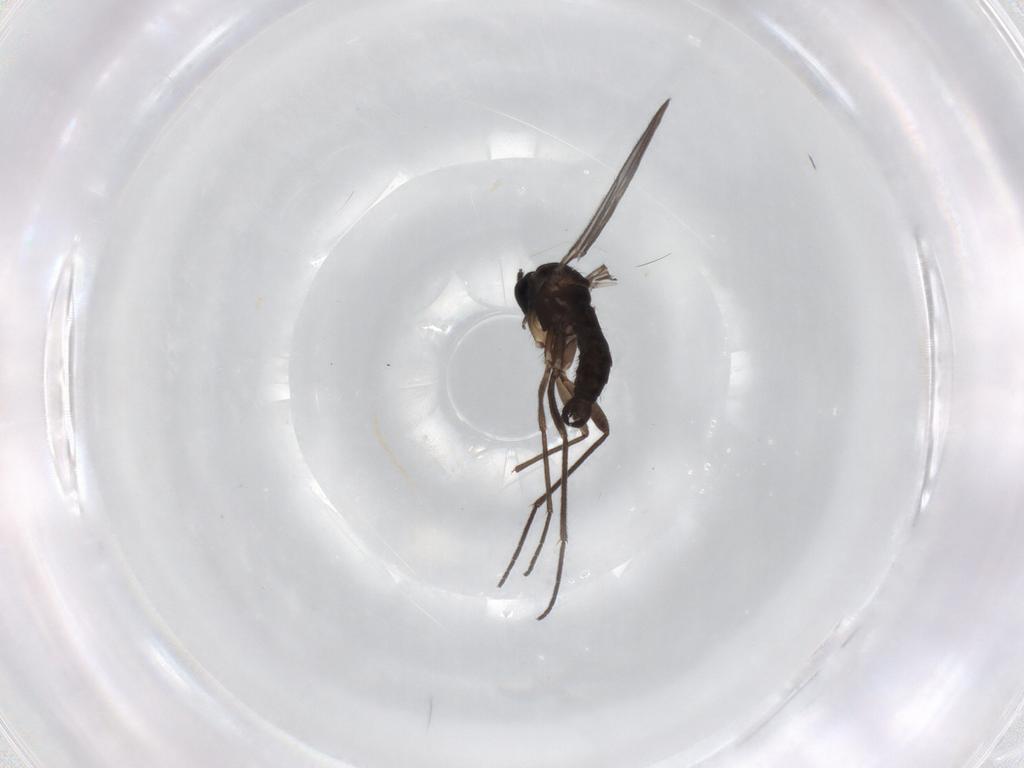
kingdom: Animalia
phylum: Arthropoda
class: Insecta
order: Diptera
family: Sciaridae
